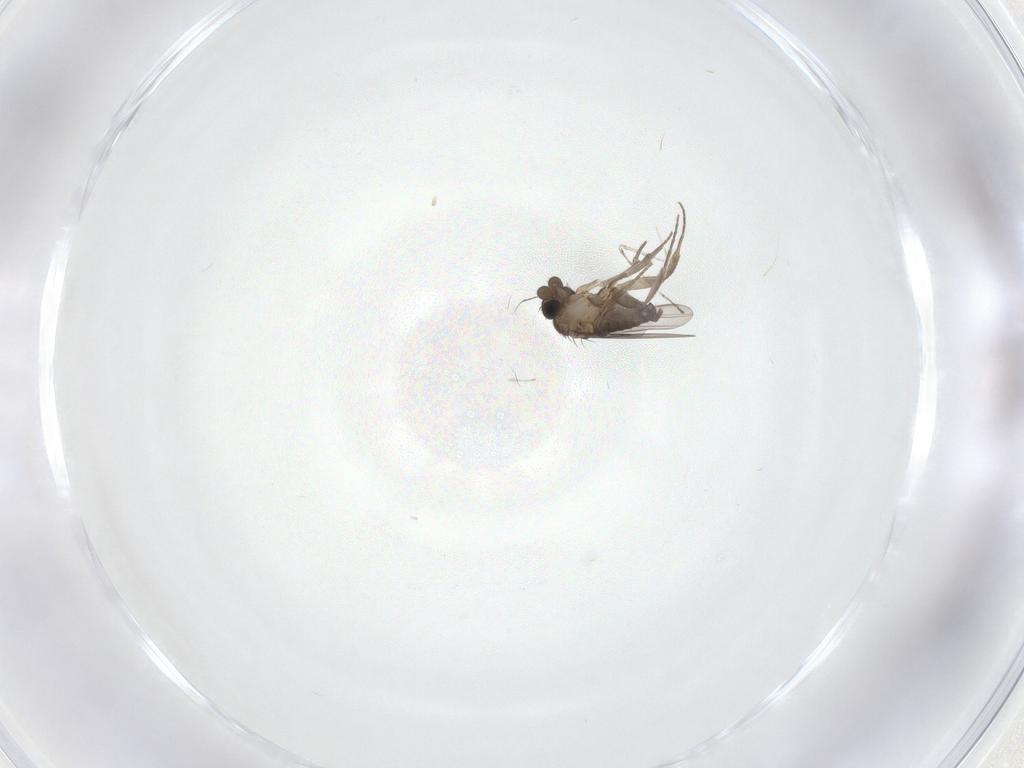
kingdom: Animalia
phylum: Arthropoda
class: Insecta
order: Diptera
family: Phoridae
